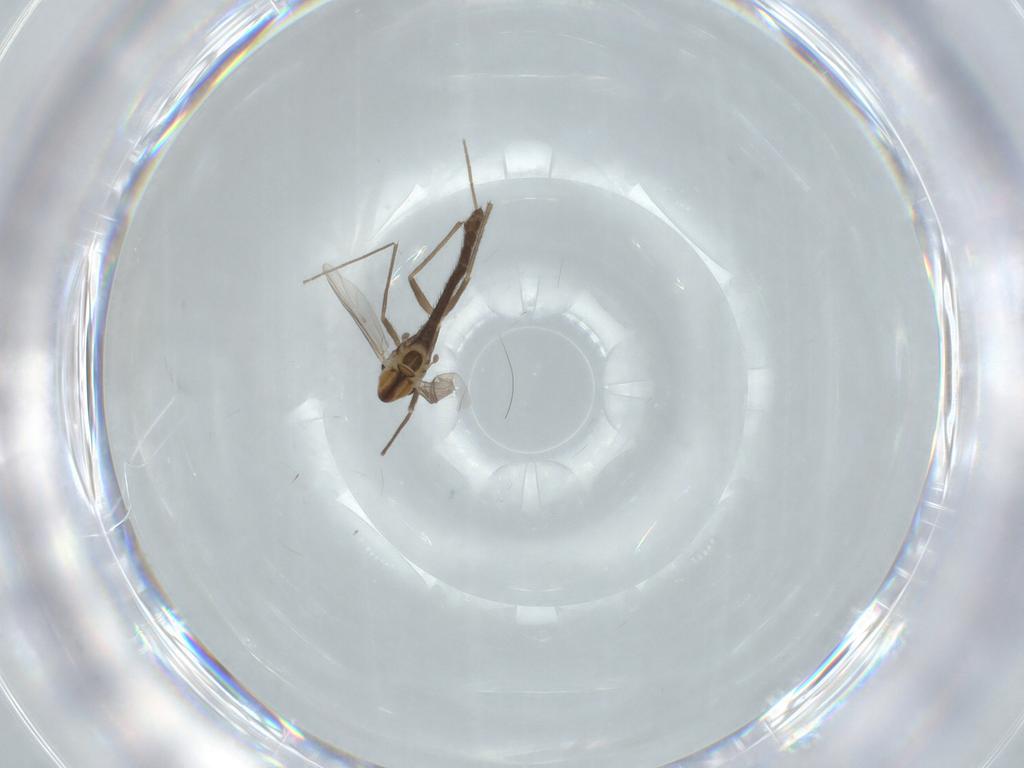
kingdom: Animalia
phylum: Arthropoda
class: Insecta
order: Diptera
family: Chironomidae
